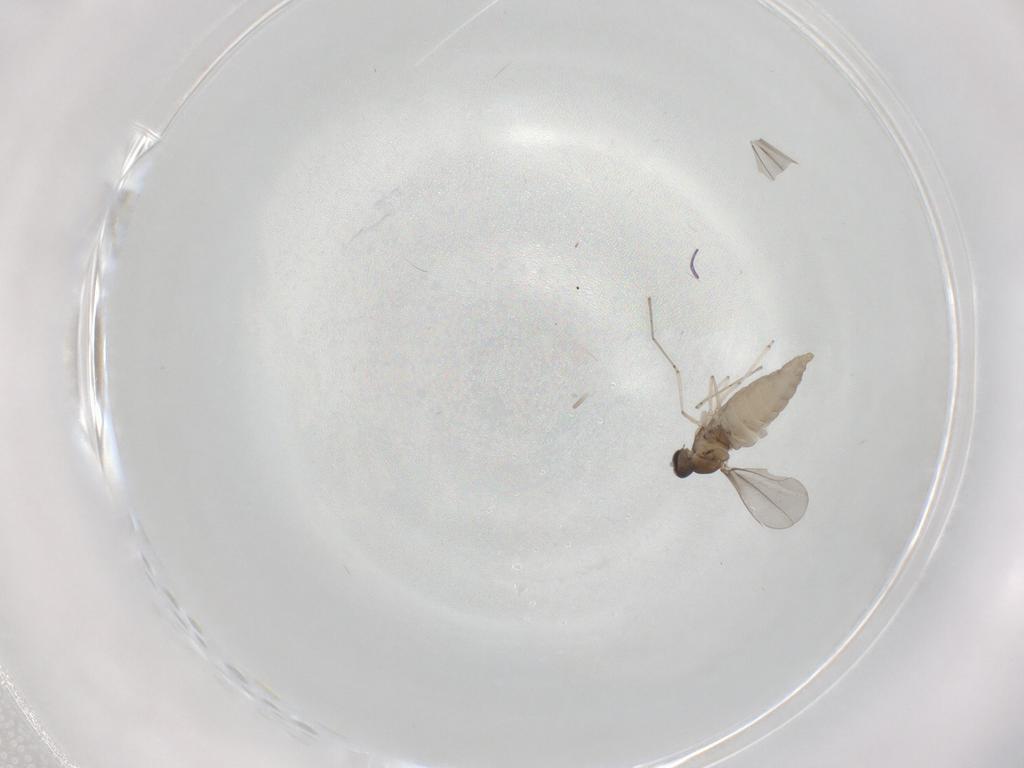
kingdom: Animalia
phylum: Arthropoda
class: Insecta
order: Diptera
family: Cecidomyiidae
